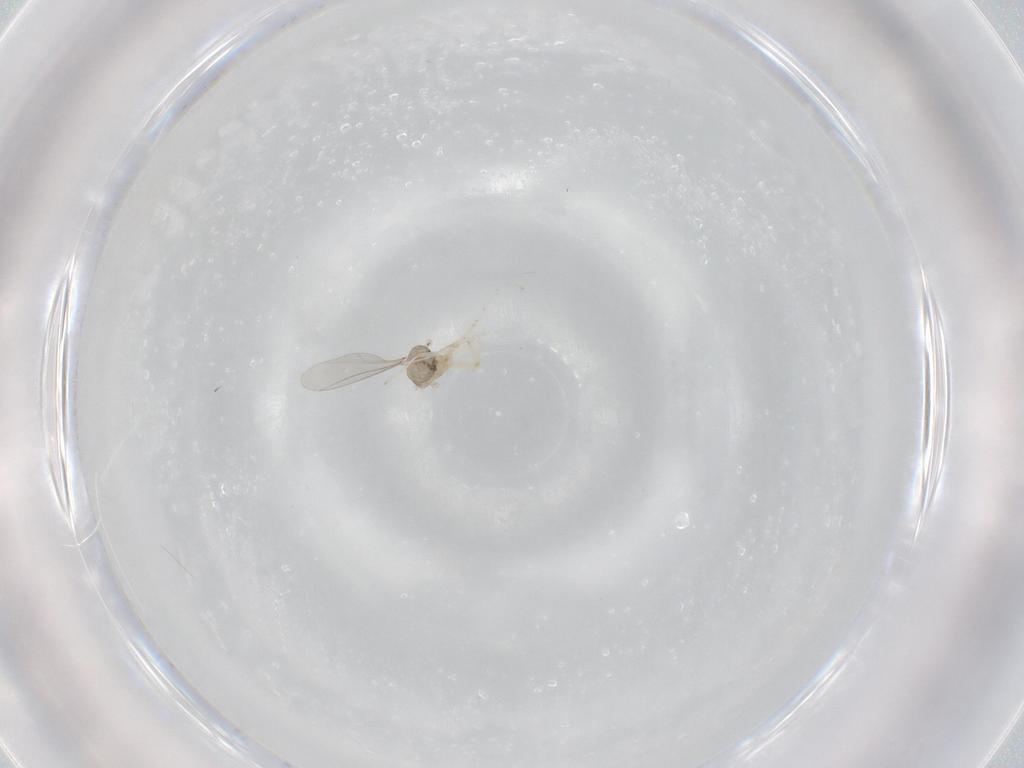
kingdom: Animalia
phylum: Arthropoda
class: Insecta
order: Diptera
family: Cecidomyiidae
